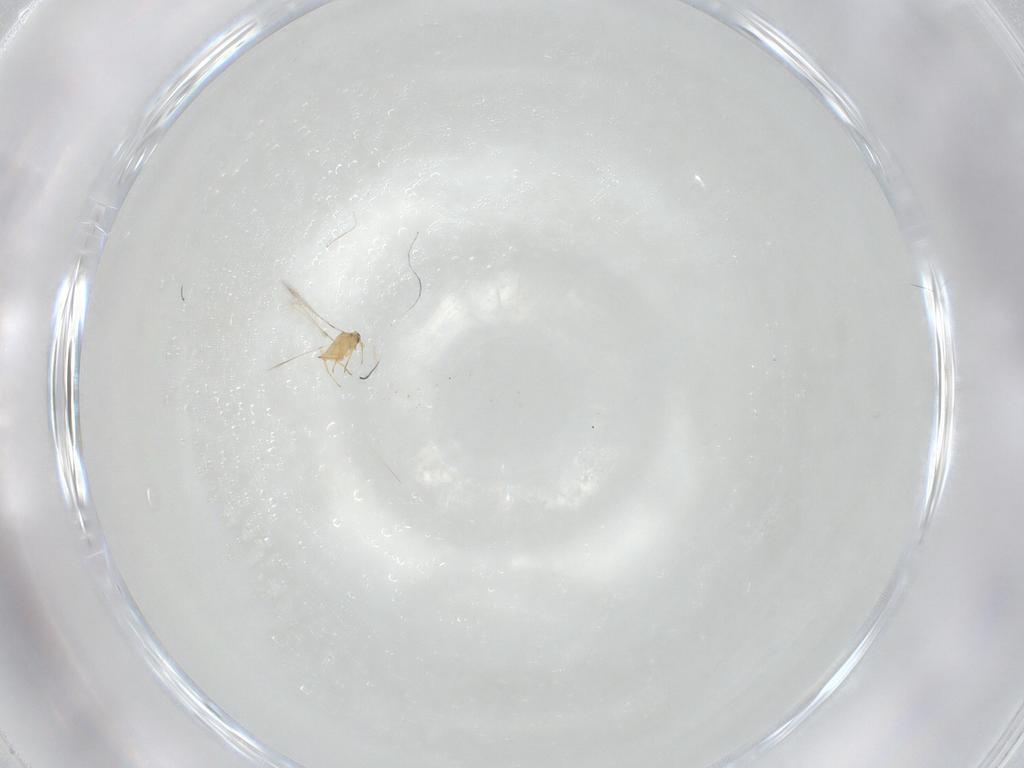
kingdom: Animalia
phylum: Arthropoda
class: Insecta
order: Hymenoptera
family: Mymaridae
